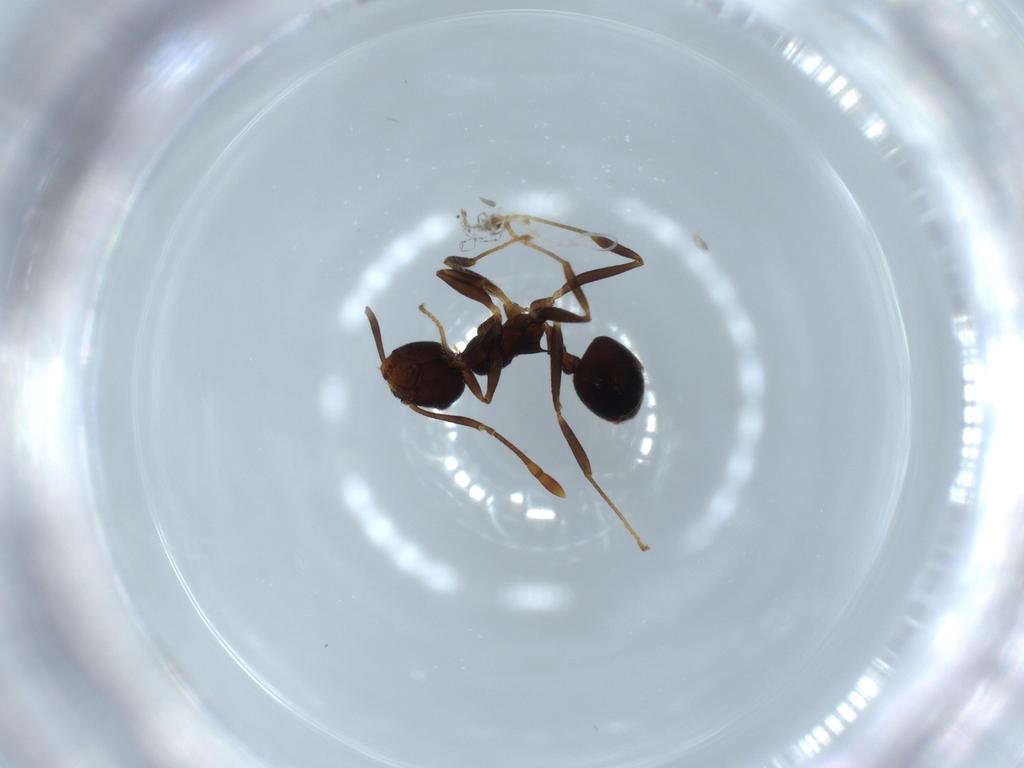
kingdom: Animalia
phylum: Arthropoda
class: Insecta
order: Hymenoptera
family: Formicidae
